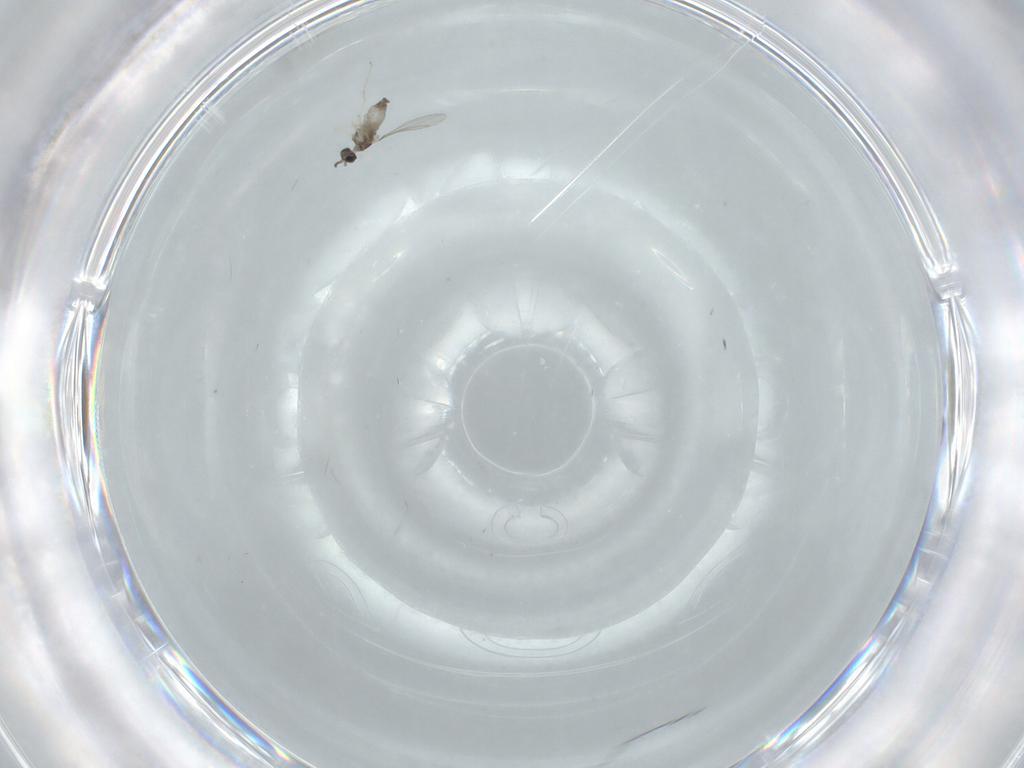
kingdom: Animalia
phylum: Arthropoda
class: Insecta
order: Diptera
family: Cecidomyiidae
